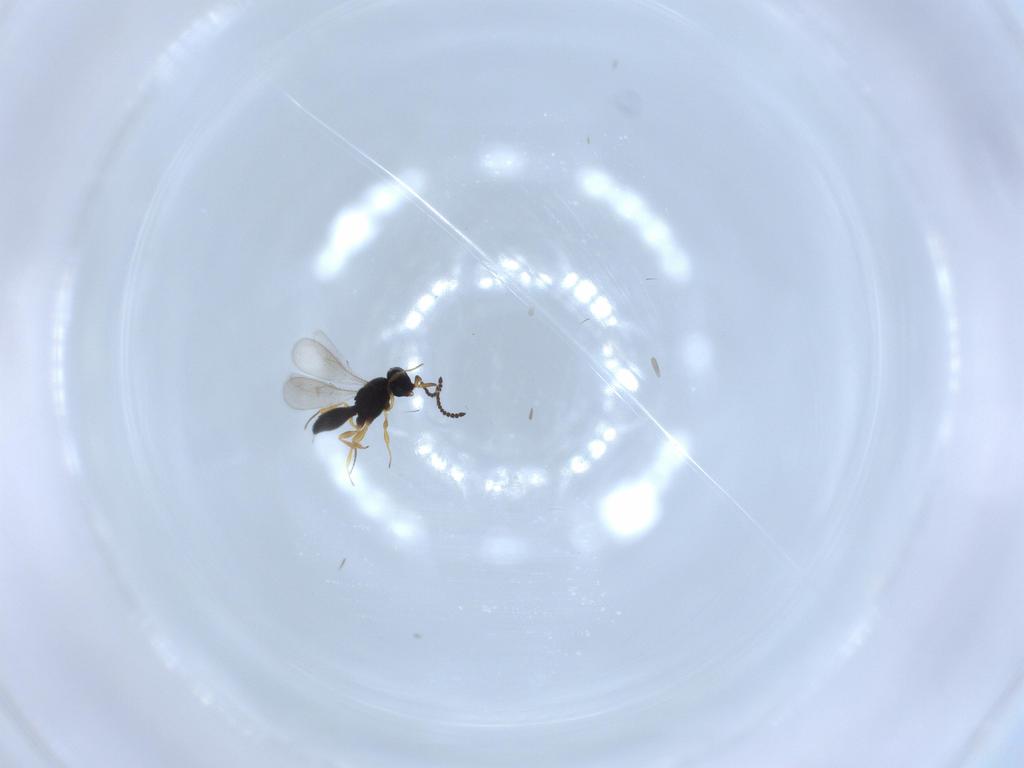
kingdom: Animalia
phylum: Arthropoda
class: Insecta
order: Hymenoptera
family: Scelionidae
